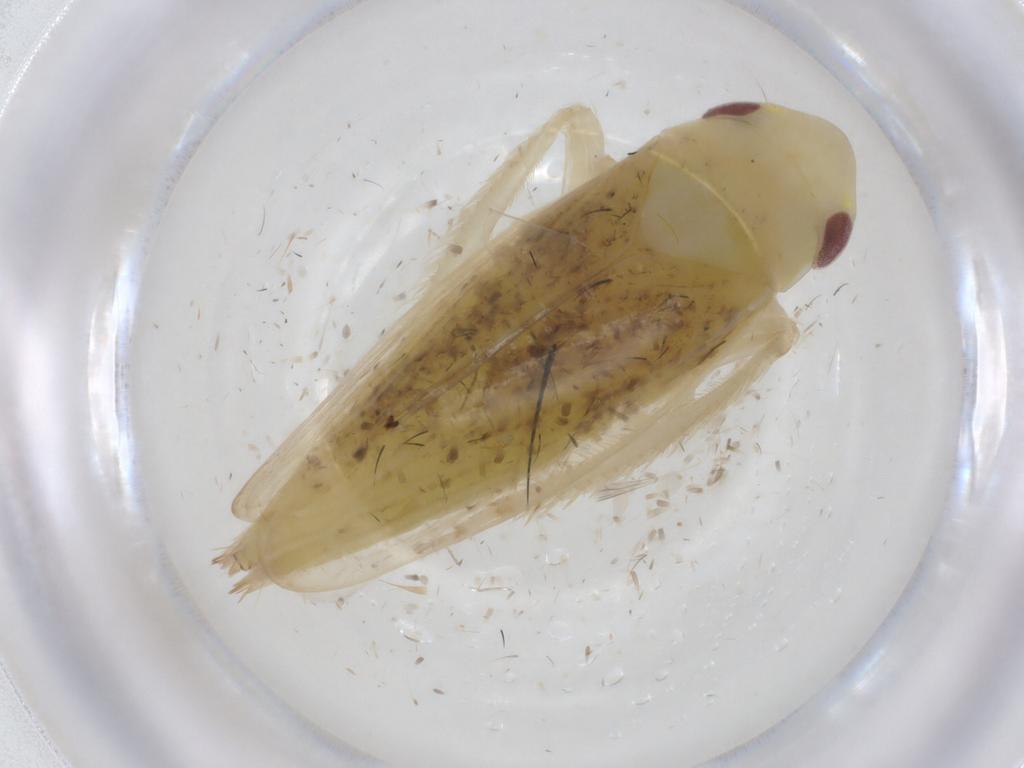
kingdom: Animalia
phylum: Arthropoda
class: Insecta
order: Hemiptera
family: Cicadellidae
